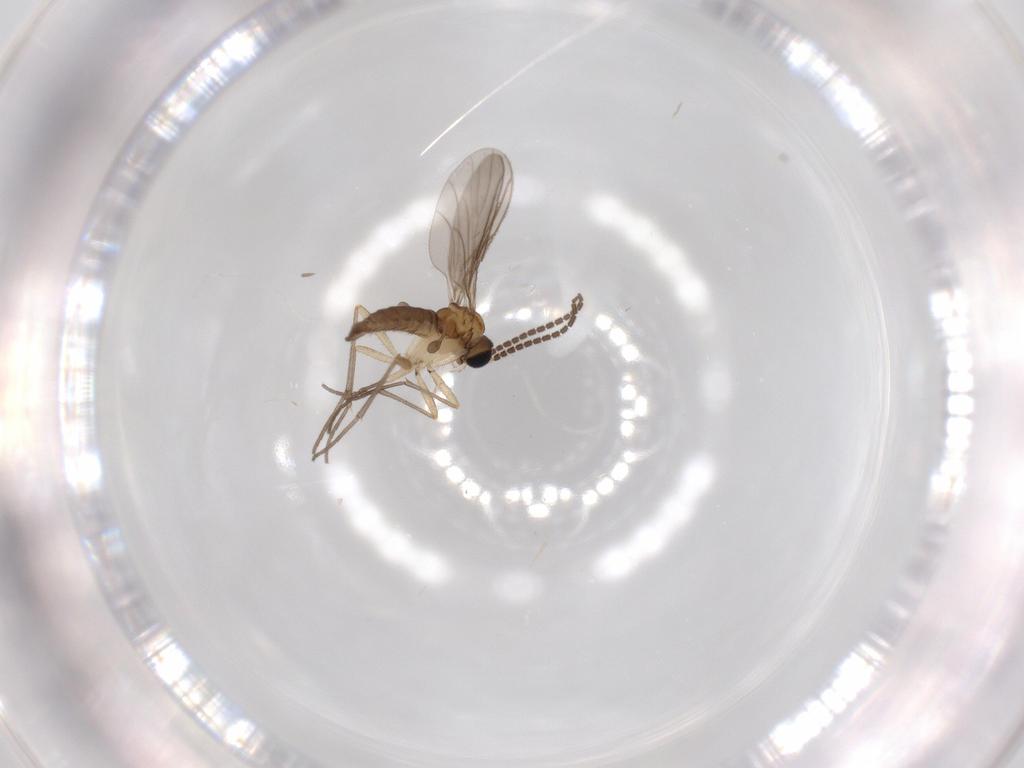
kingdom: Animalia
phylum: Arthropoda
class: Insecta
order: Diptera
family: Sciaridae
